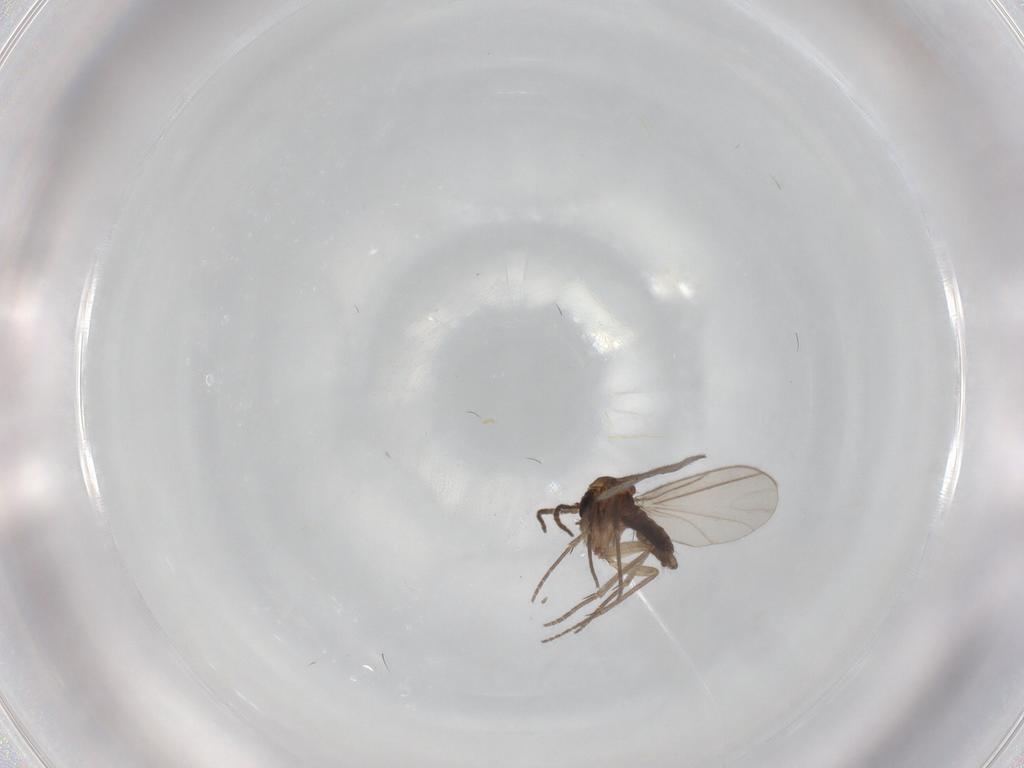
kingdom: Animalia
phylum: Arthropoda
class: Insecta
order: Diptera
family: Sciaridae
